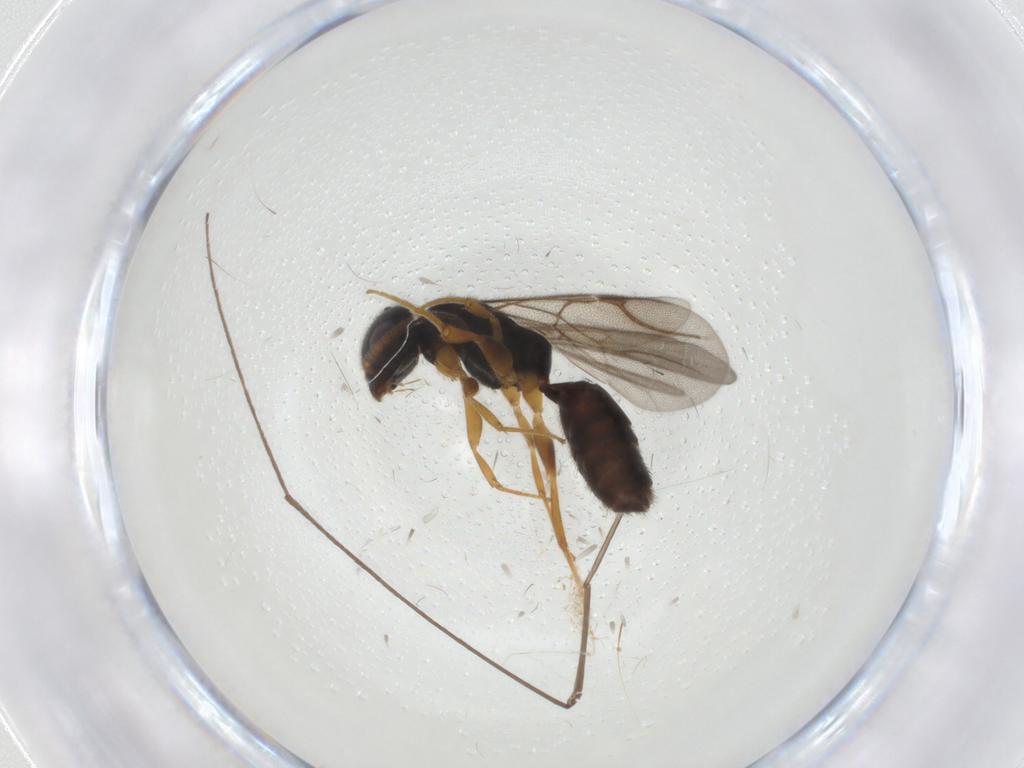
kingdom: Animalia
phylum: Arthropoda
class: Insecta
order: Hymenoptera
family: Bethylidae
